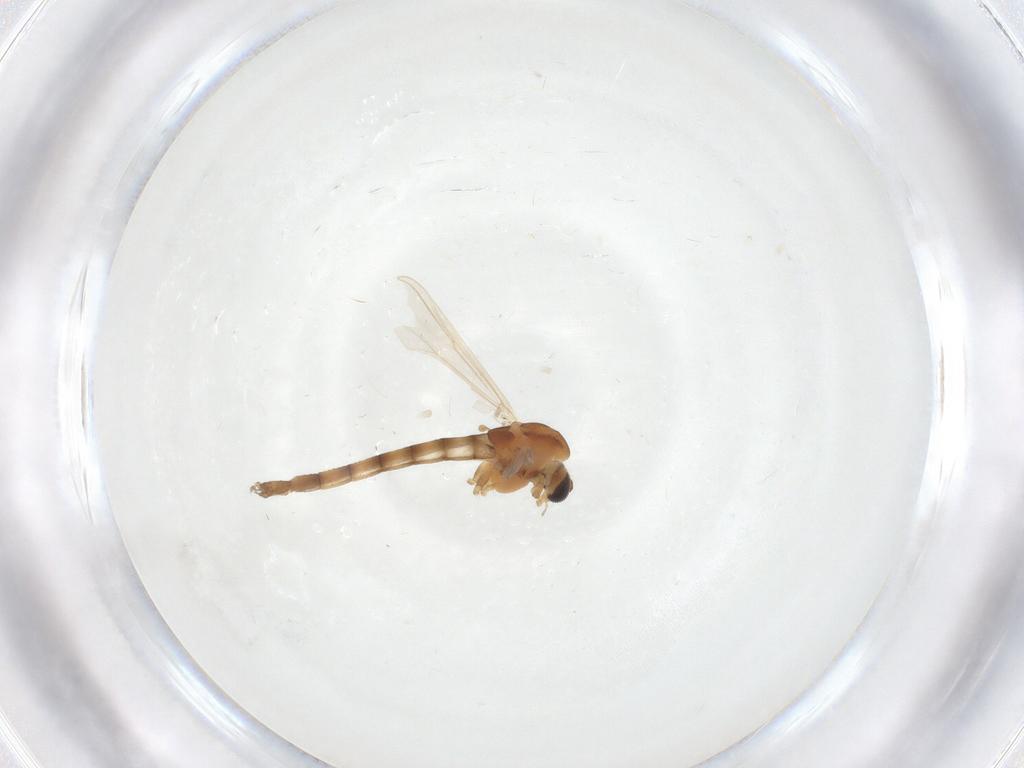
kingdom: Animalia
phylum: Arthropoda
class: Insecta
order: Diptera
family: Chironomidae
